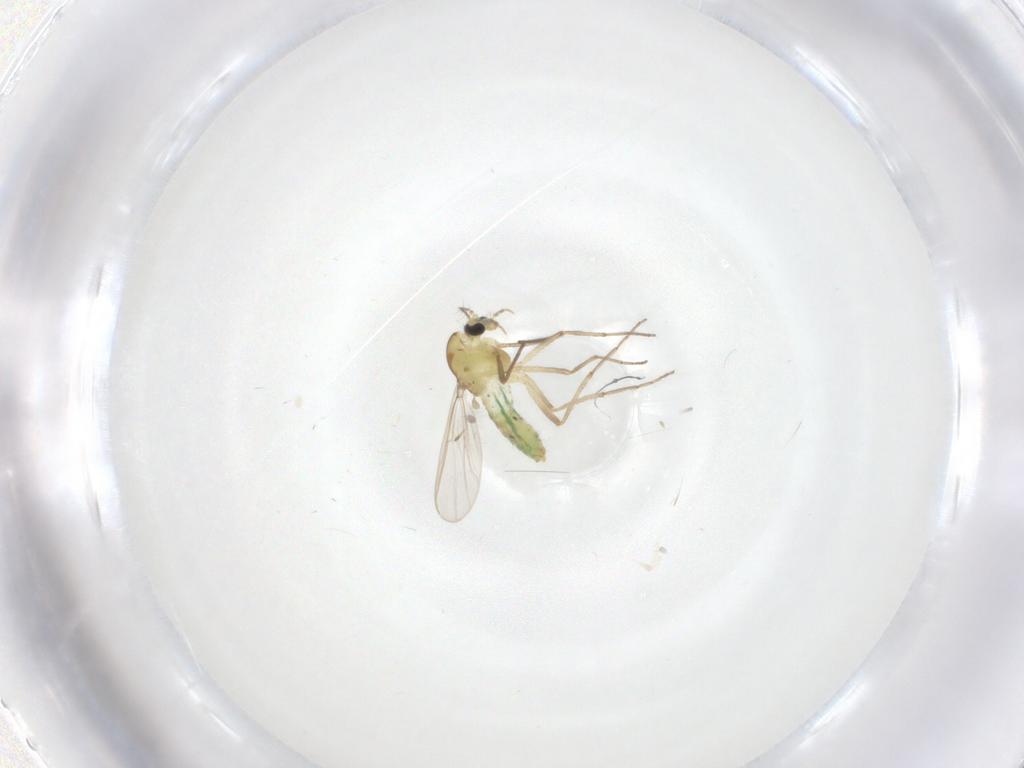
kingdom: Animalia
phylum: Arthropoda
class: Insecta
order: Diptera
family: Chironomidae
